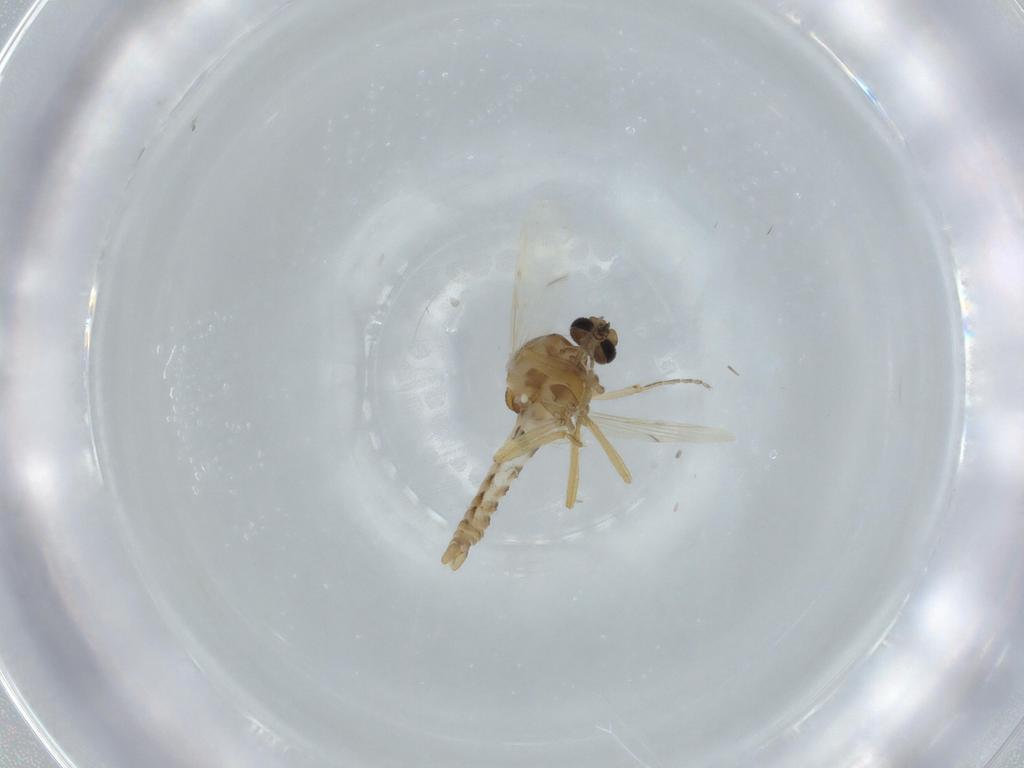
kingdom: Animalia
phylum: Arthropoda
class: Insecta
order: Diptera
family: Ceratopogonidae
